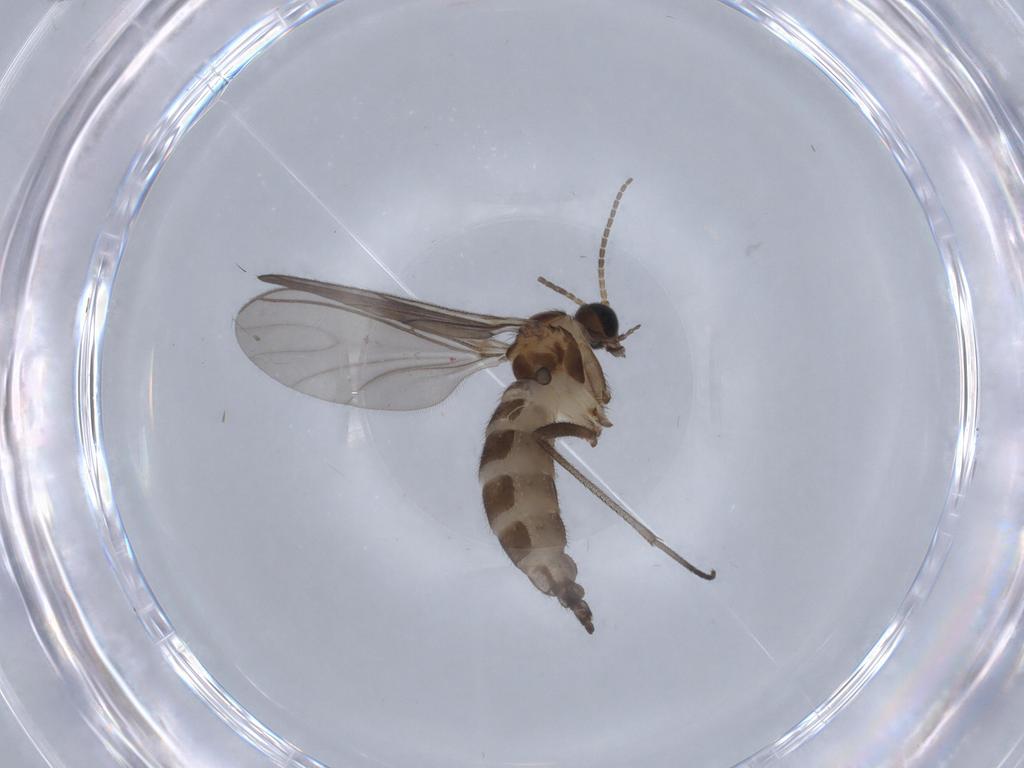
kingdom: Animalia
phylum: Arthropoda
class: Insecta
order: Diptera
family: Sciaridae
